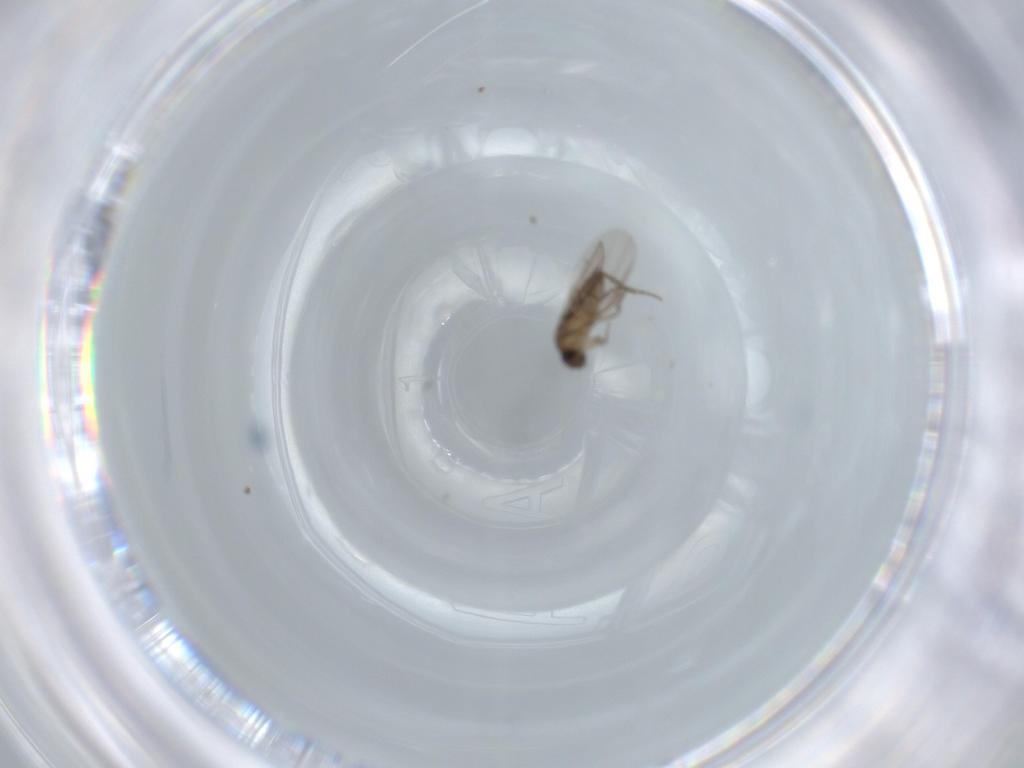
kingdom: Animalia
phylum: Arthropoda
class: Insecta
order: Diptera
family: Phoridae
